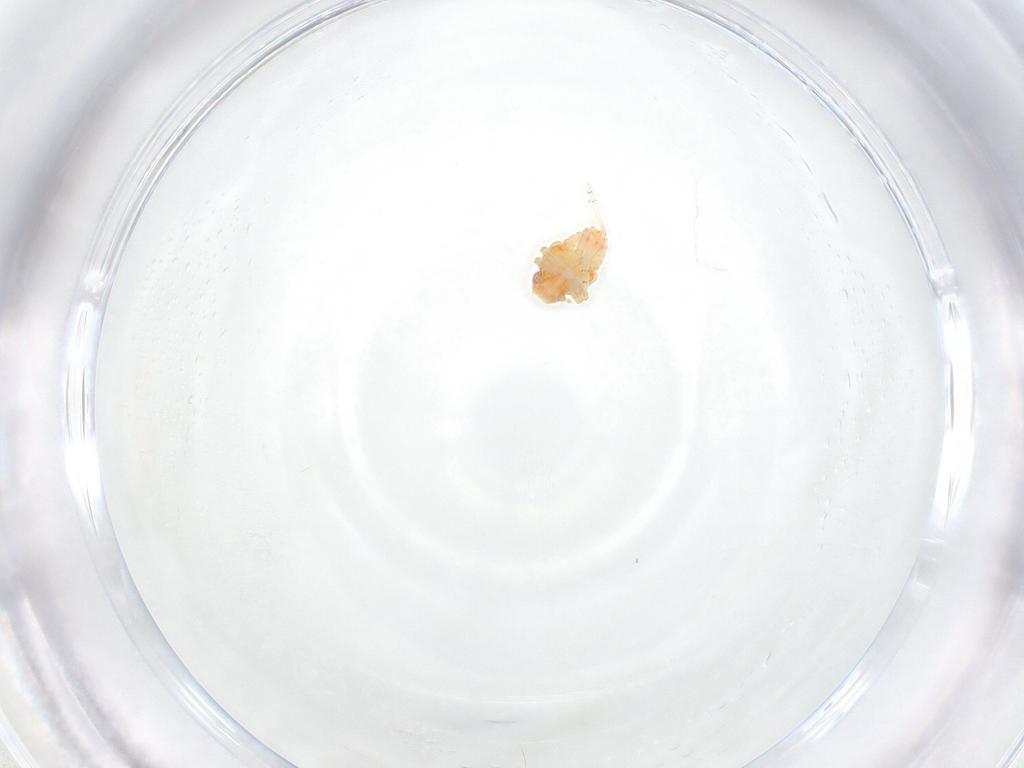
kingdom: Animalia
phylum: Arthropoda
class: Insecta
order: Hemiptera
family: Issidae
